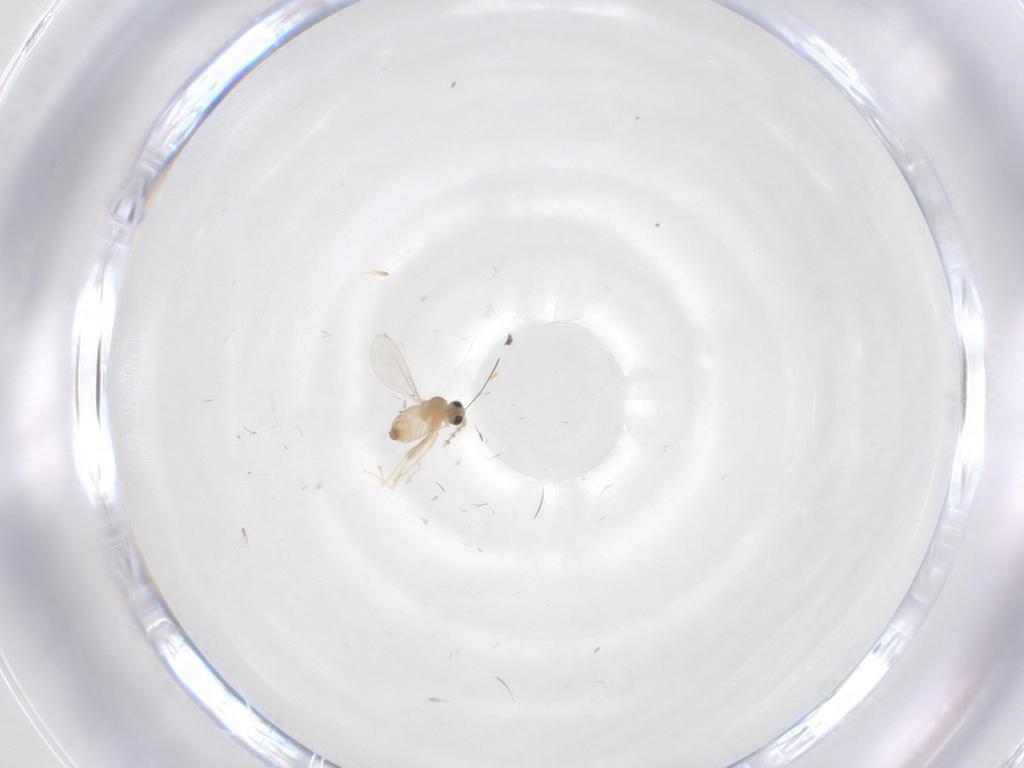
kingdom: Animalia
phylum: Arthropoda
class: Insecta
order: Diptera
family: Cecidomyiidae
